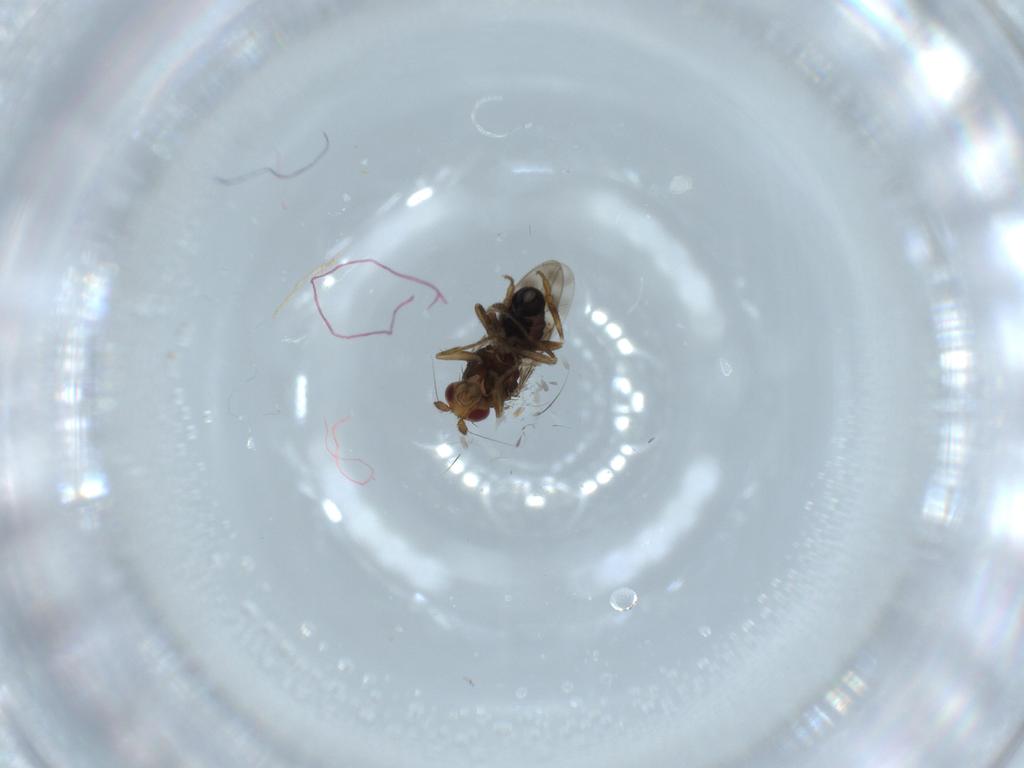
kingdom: Animalia
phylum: Arthropoda
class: Insecta
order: Diptera
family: Sphaeroceridae
